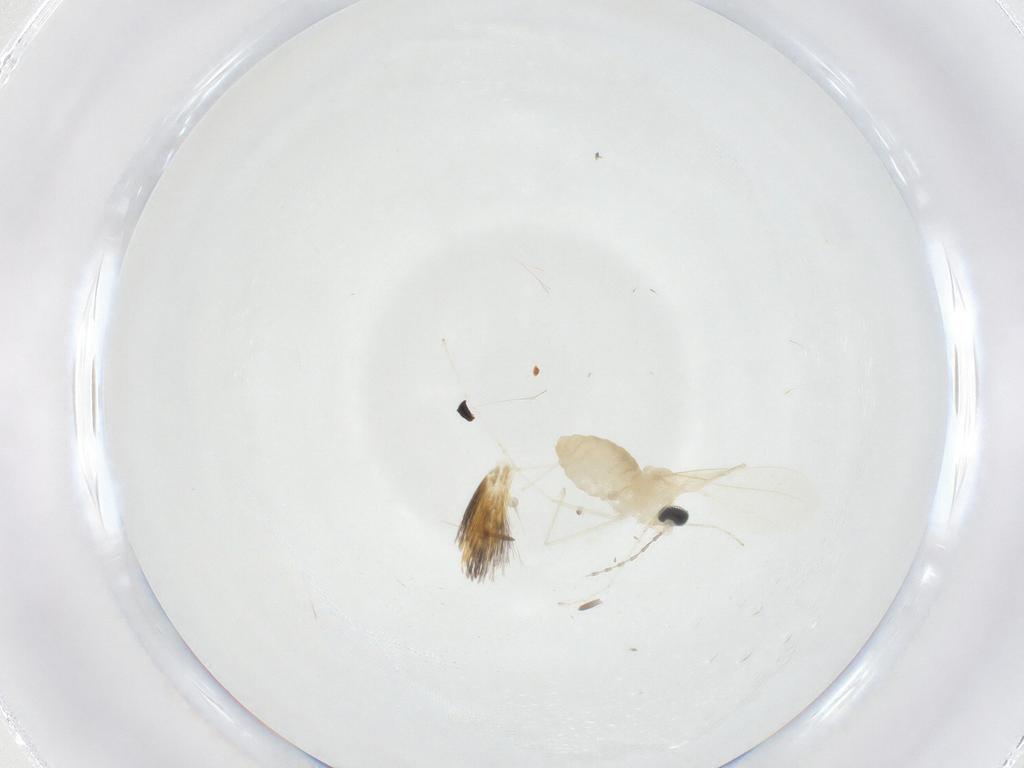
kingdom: Animalia
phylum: Arthropoda
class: Insecta
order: Diptera
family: Cecidomyiidae
